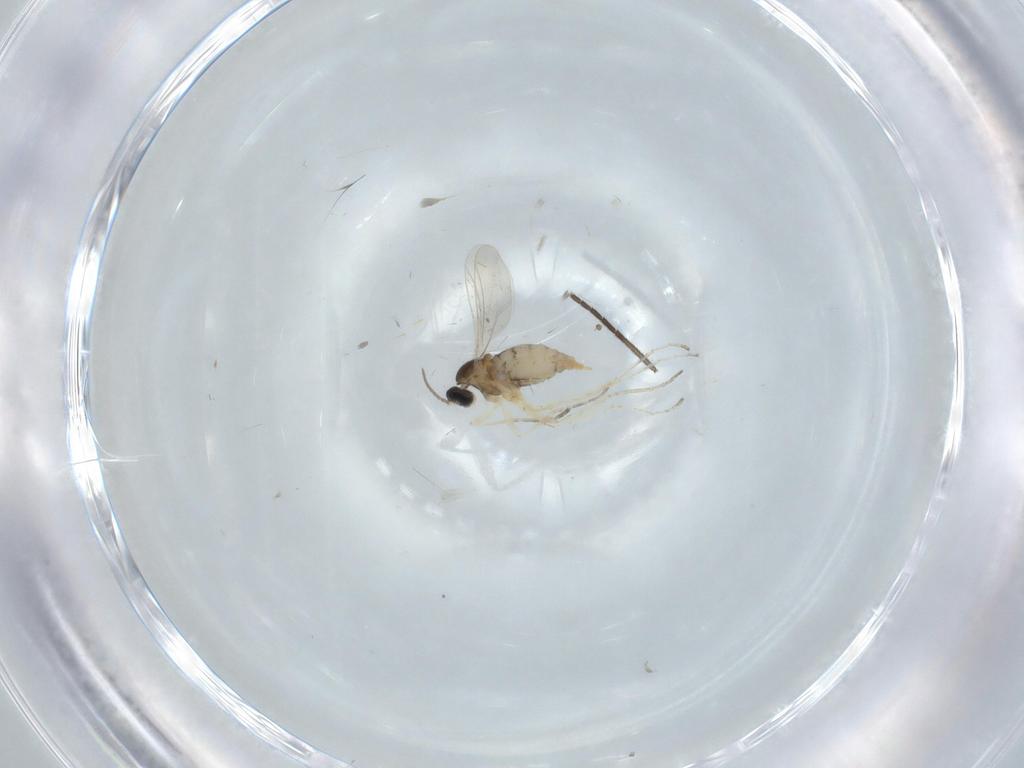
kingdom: Animalia
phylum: Arthropoda
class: Insecta
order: Diptera
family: Cecidomyiidae
